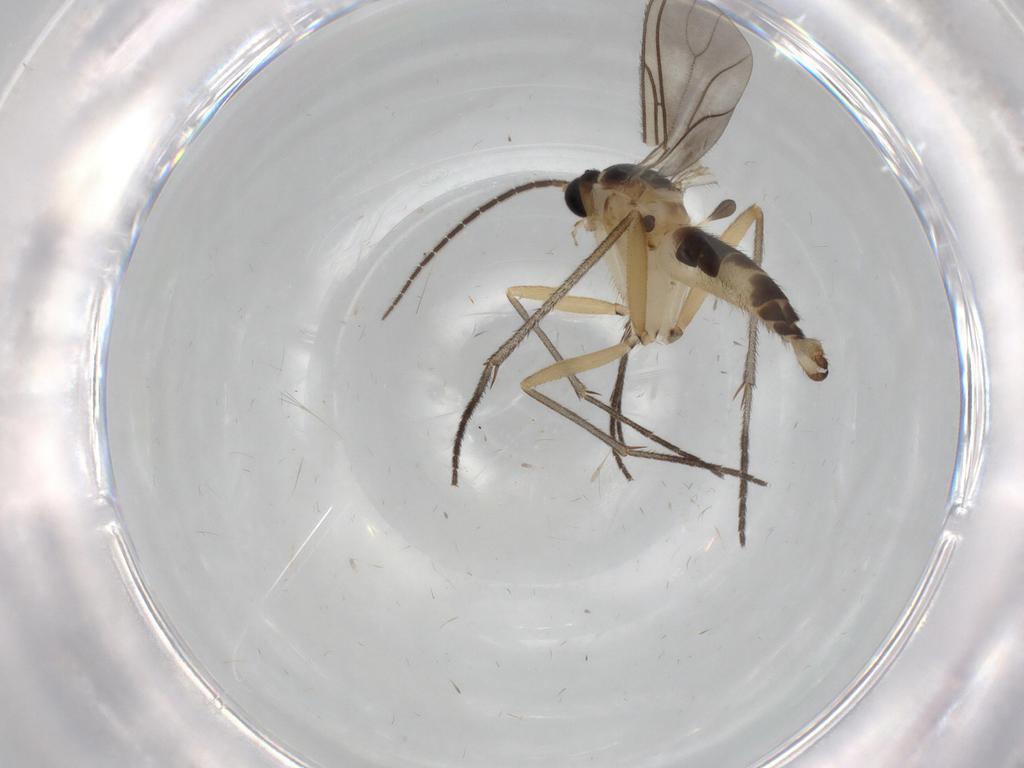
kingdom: Animalia
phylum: Arthropoda
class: Insecta
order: Diptera
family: Sciaridae
